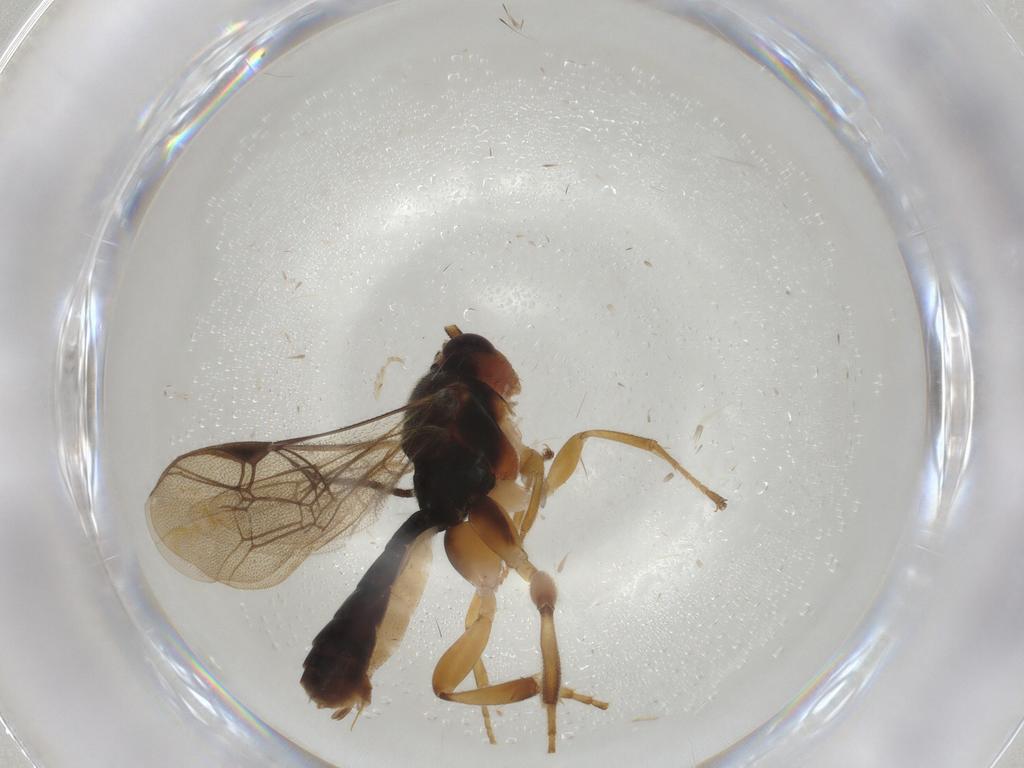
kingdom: Animalia
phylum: Arthropoda
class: Insecta
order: Hymenoptera
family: Ichneumonidae
